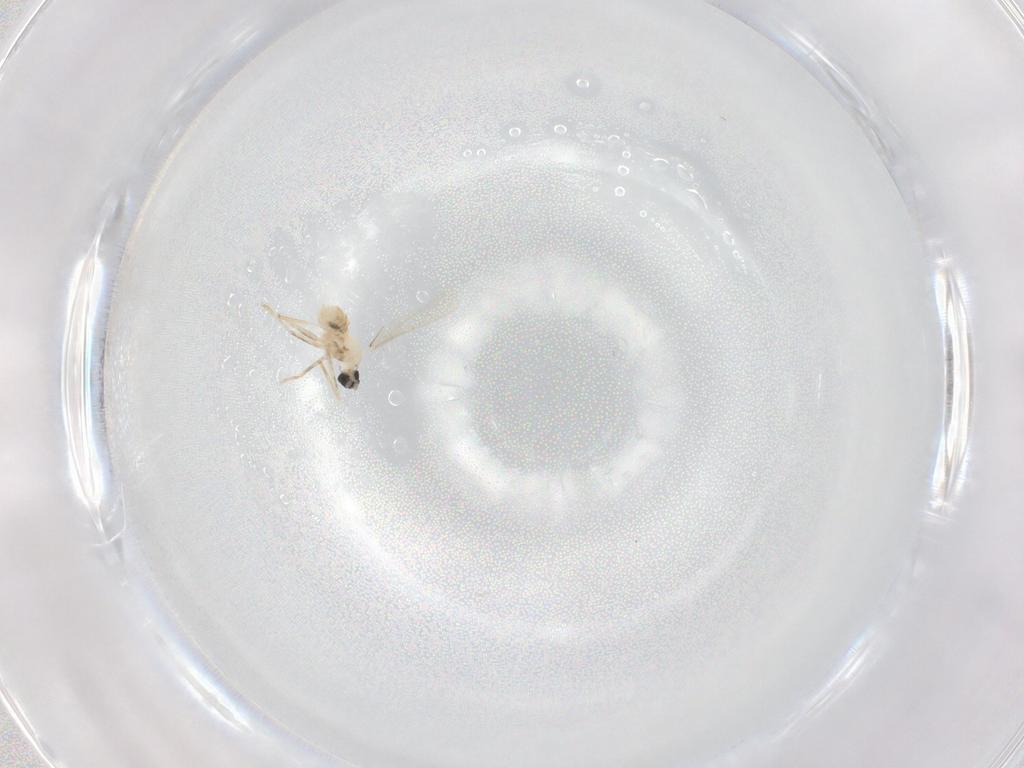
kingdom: Animalia
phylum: Arthropoda
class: Insecta
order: Diptera
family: Cecidomyiidae
